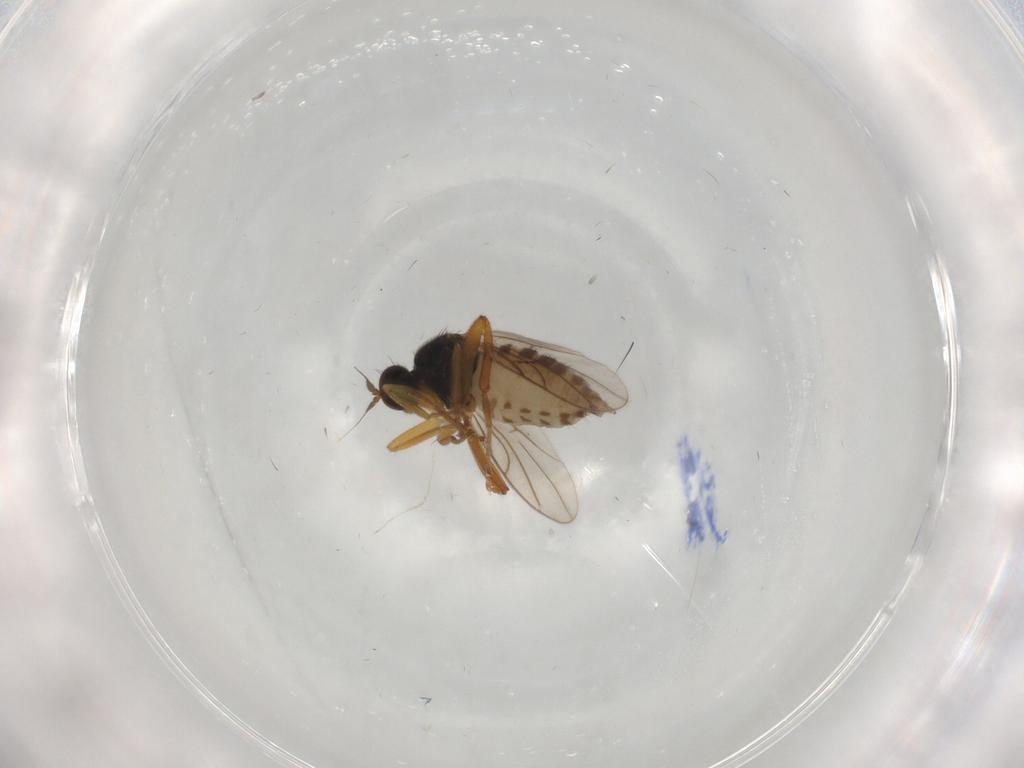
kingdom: Animalia
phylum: Arthropoda
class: Insecta
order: Diptera
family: Hybotidae
